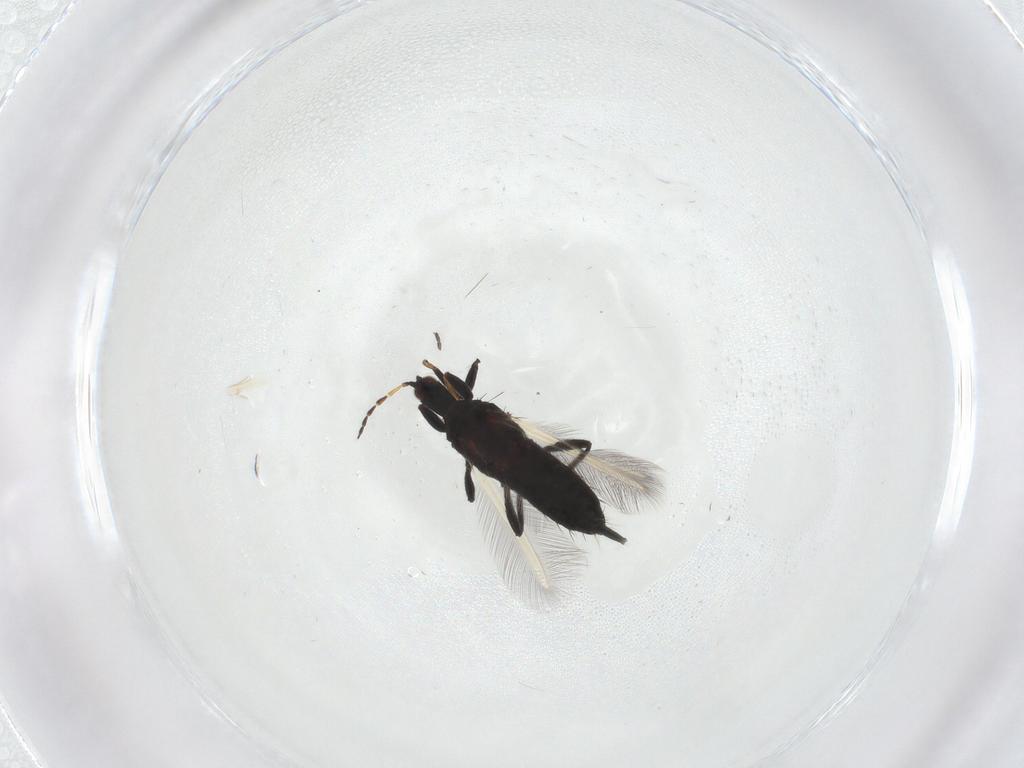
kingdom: Animalia
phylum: Arthropoda
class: Insecta
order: Thysanoptera
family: Phlaeothripidae
